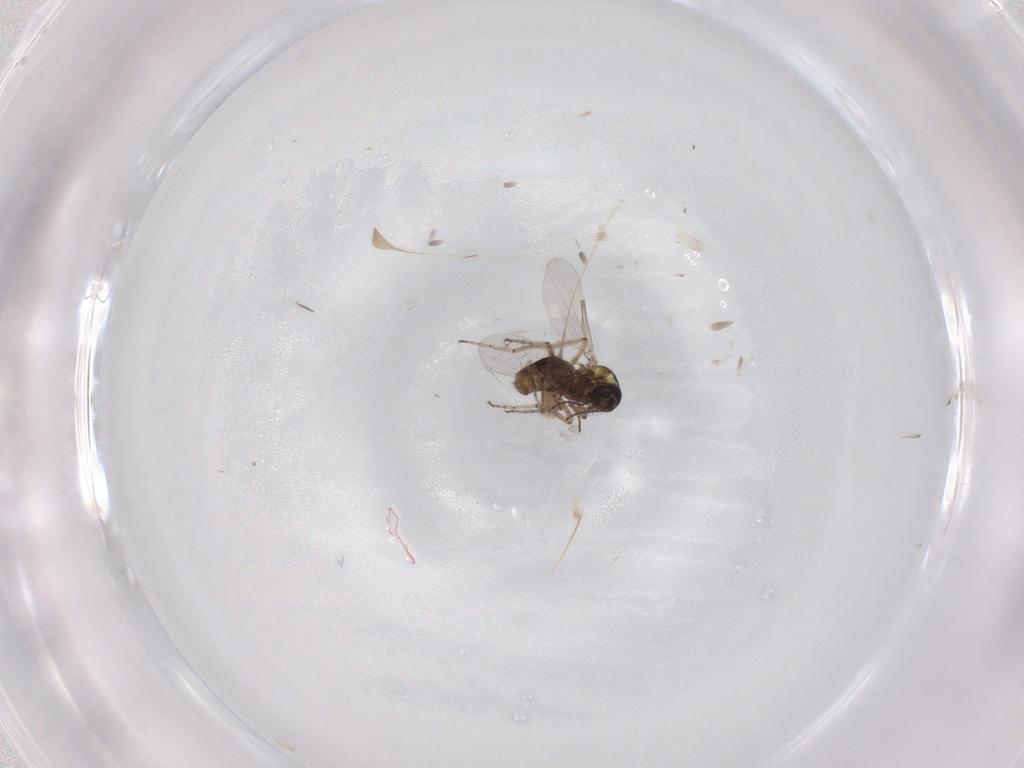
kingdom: Animalia
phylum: Arthropoda
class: Insecta
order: Diptera
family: Ceratopogonidae
